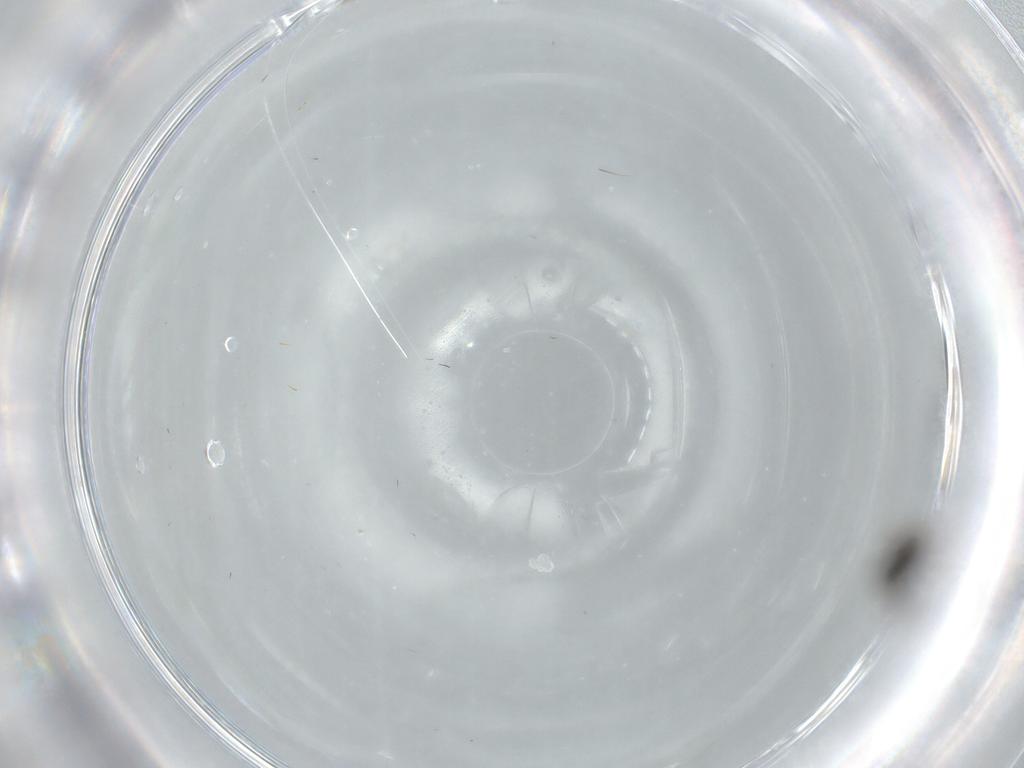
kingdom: Animalia
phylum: Arthropoda
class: Insecta
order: Hymenoptera
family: Scelionidae
